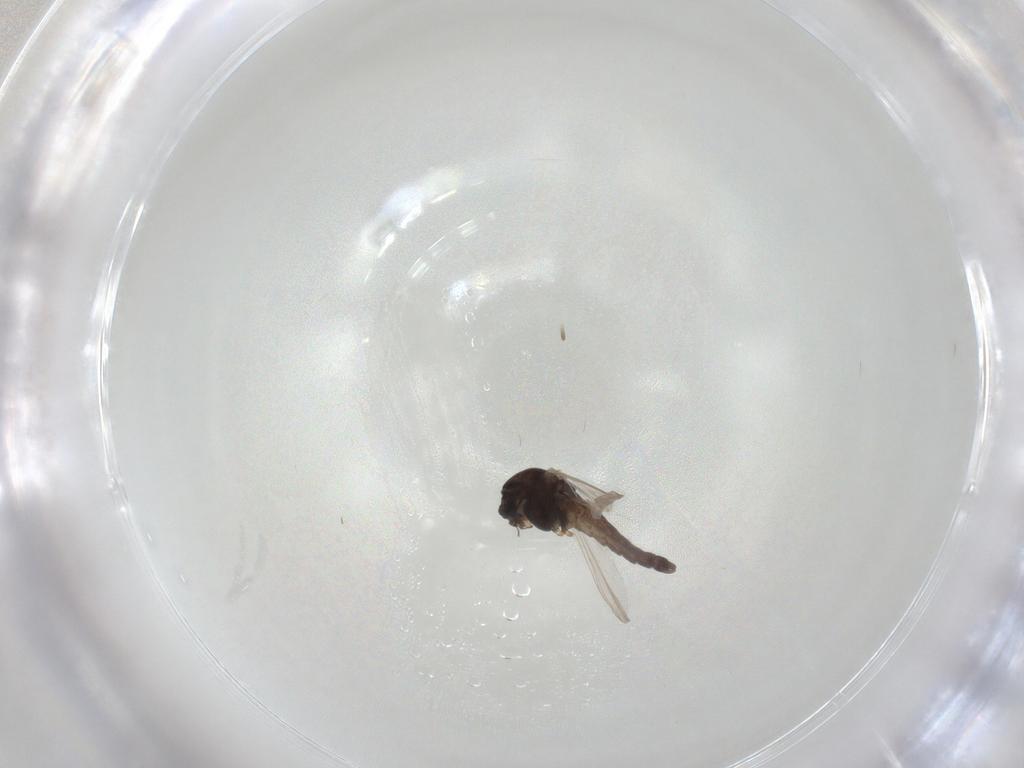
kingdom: Animalia
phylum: Arthropoda
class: Insecta
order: Diptera
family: Chironomidae
